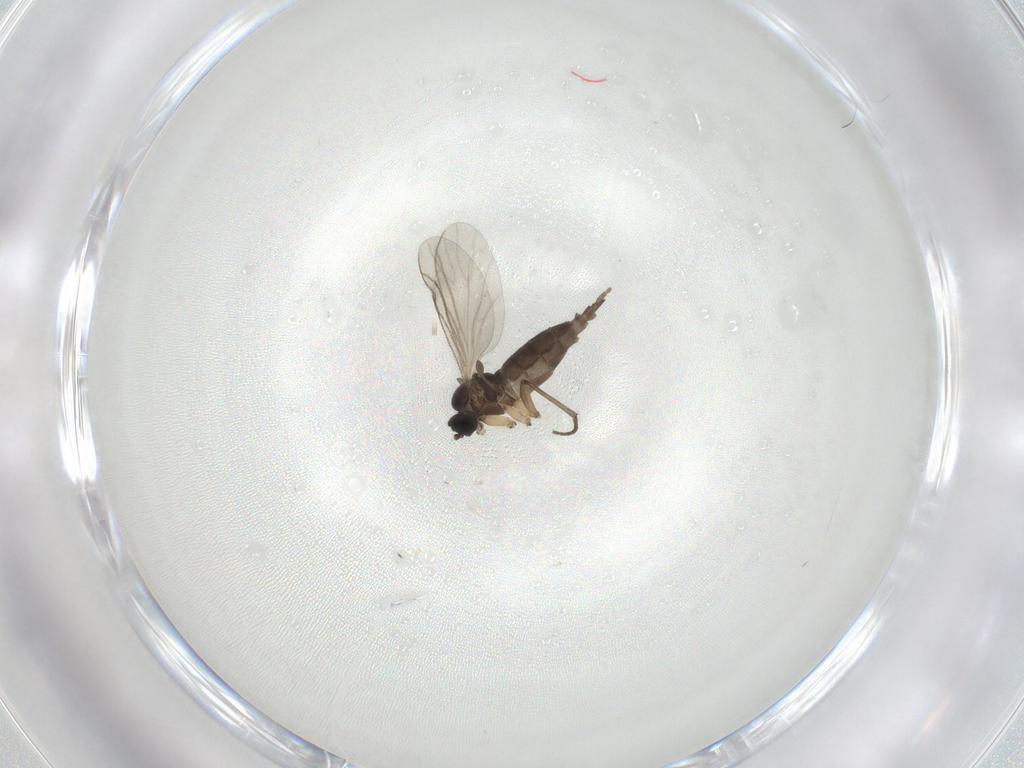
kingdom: Animalia
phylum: Arthropoda
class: Insecta
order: Diptera
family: Sciaridae
